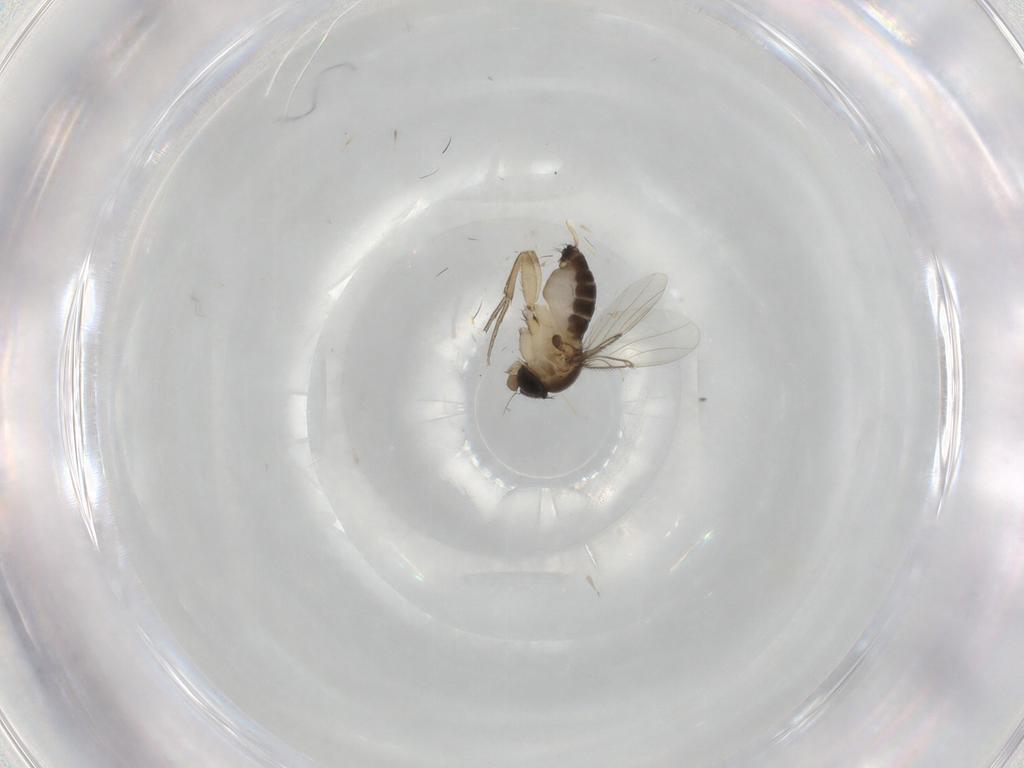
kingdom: Animalia
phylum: Arthropoda
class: Insecta
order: Diptera
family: Phoridae
